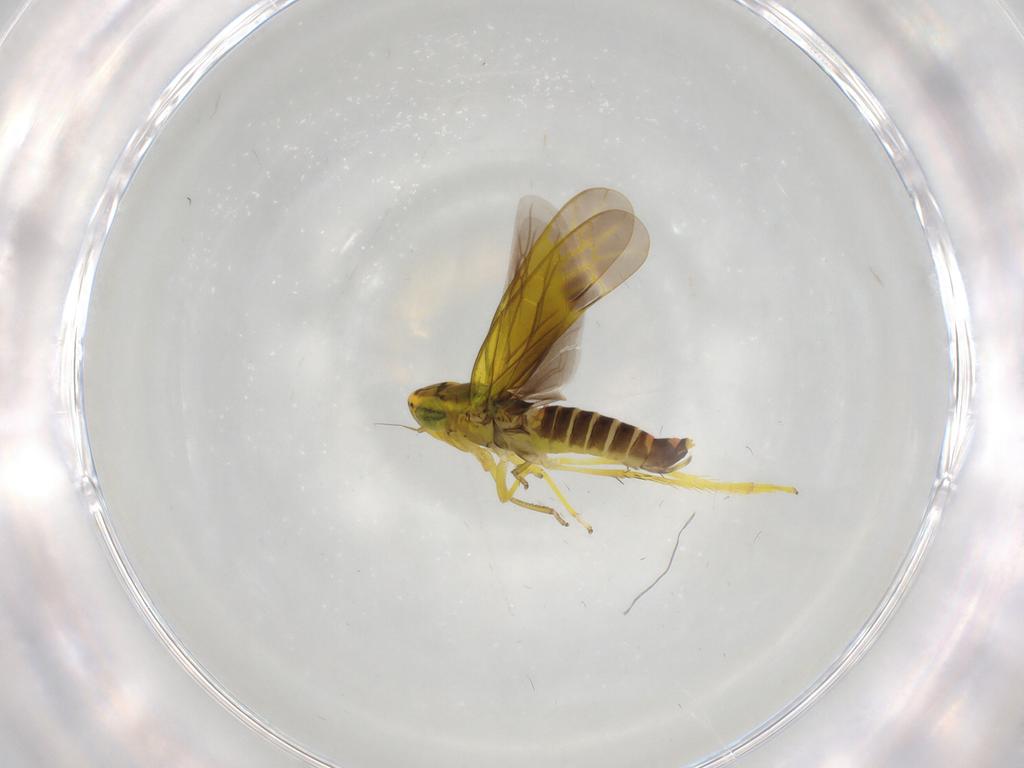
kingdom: Animalia
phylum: Arthropoda
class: Insecta
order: Hemiptera
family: Cicadellidae
